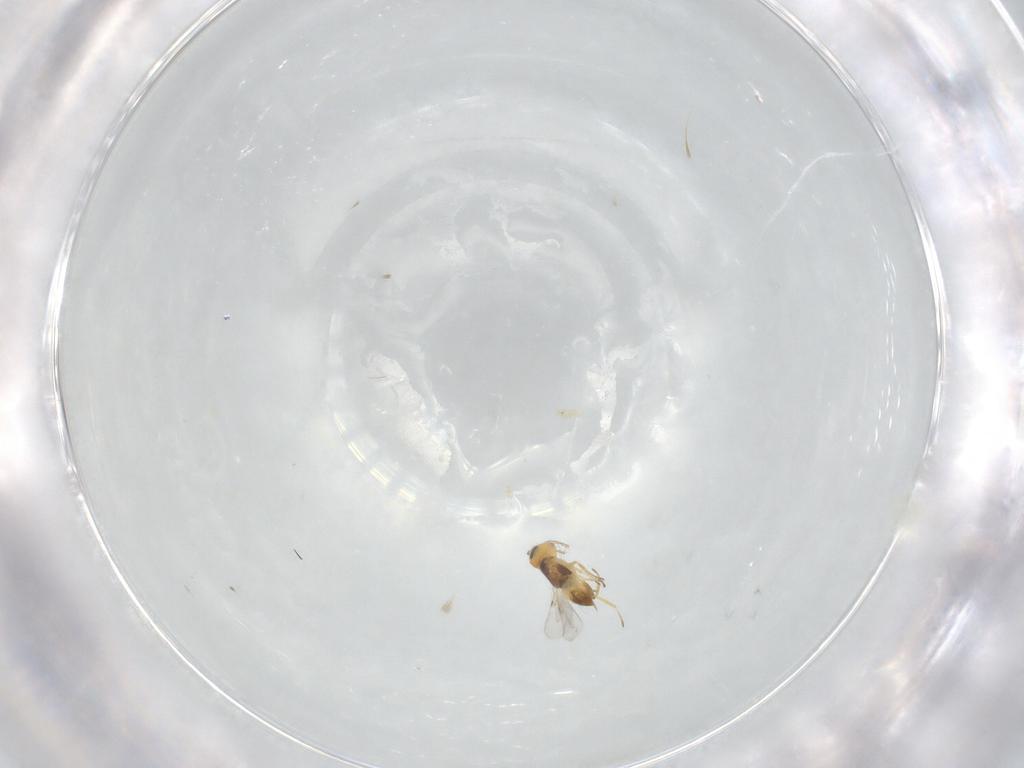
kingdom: Animalia
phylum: Arthropoda
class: Insecta
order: Hymenoptera
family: Encyrtidae
